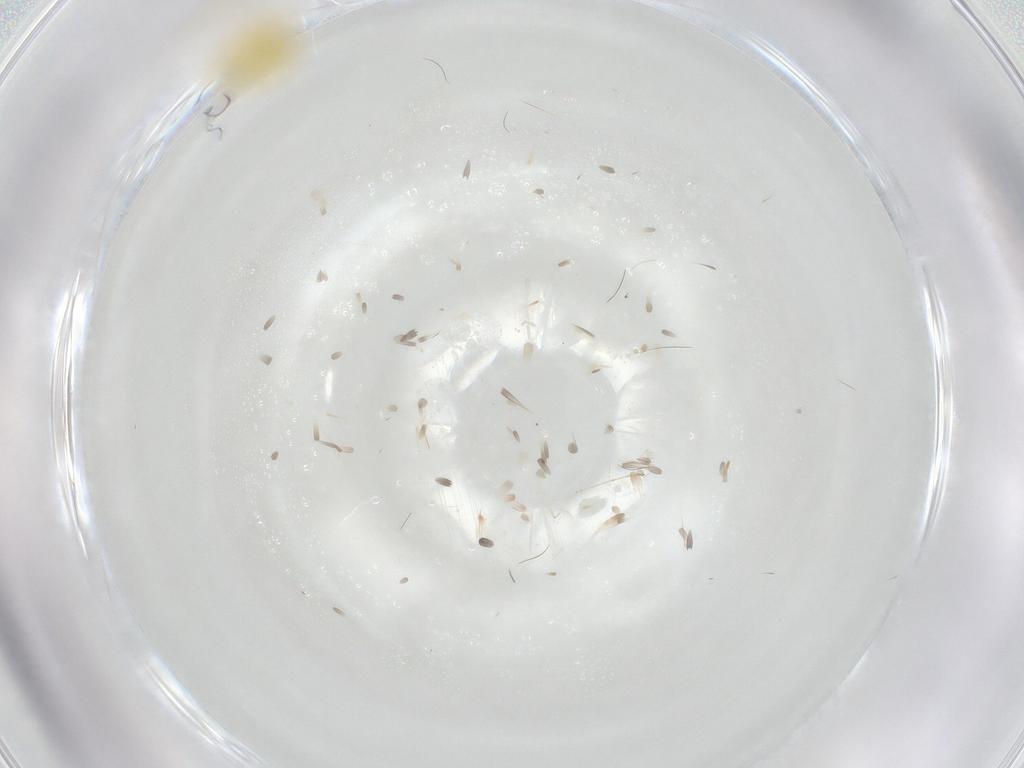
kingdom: Animalia
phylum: Arthropoda
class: Insecta
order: Diptera
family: Cecidomyiidae
